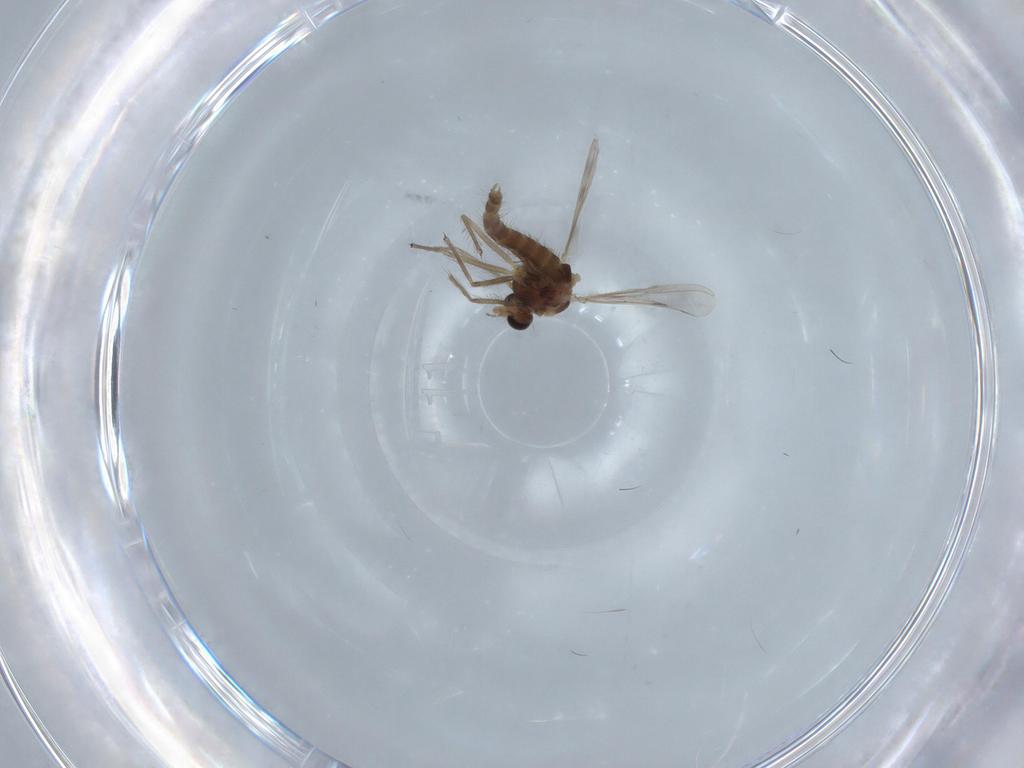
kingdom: Animalia
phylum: Arthropoda
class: Insecta
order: Diptera
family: Chironomidae
